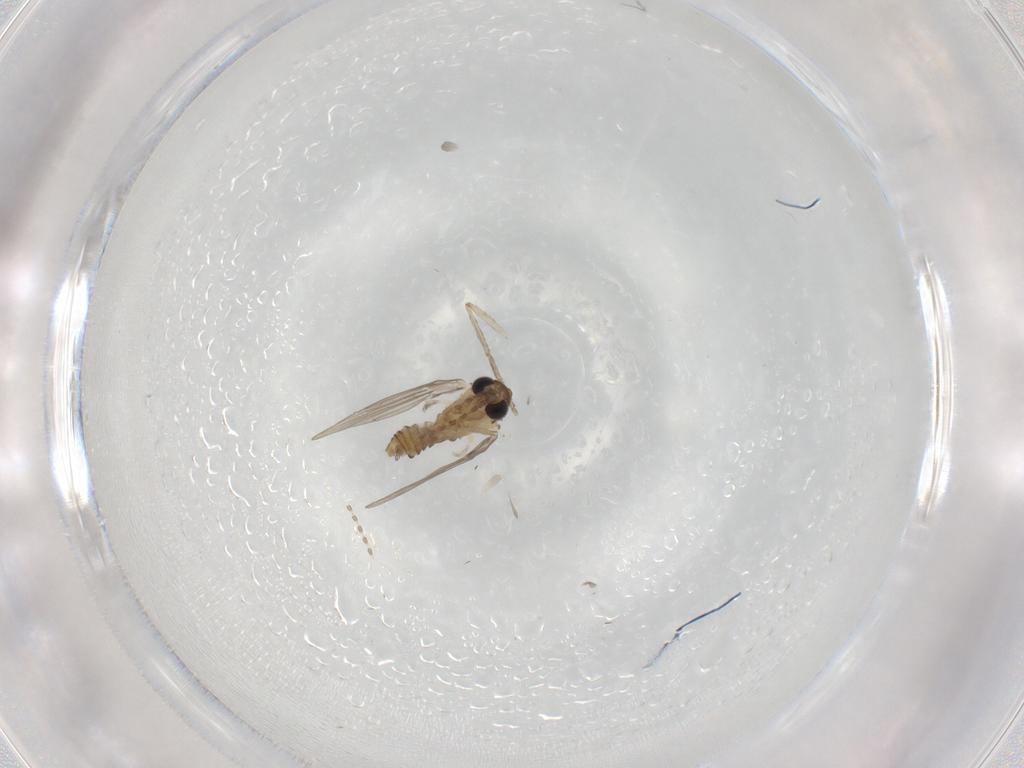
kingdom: Animalia
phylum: Arthropoda
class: Insecta
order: Diptera
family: Psychodidae
